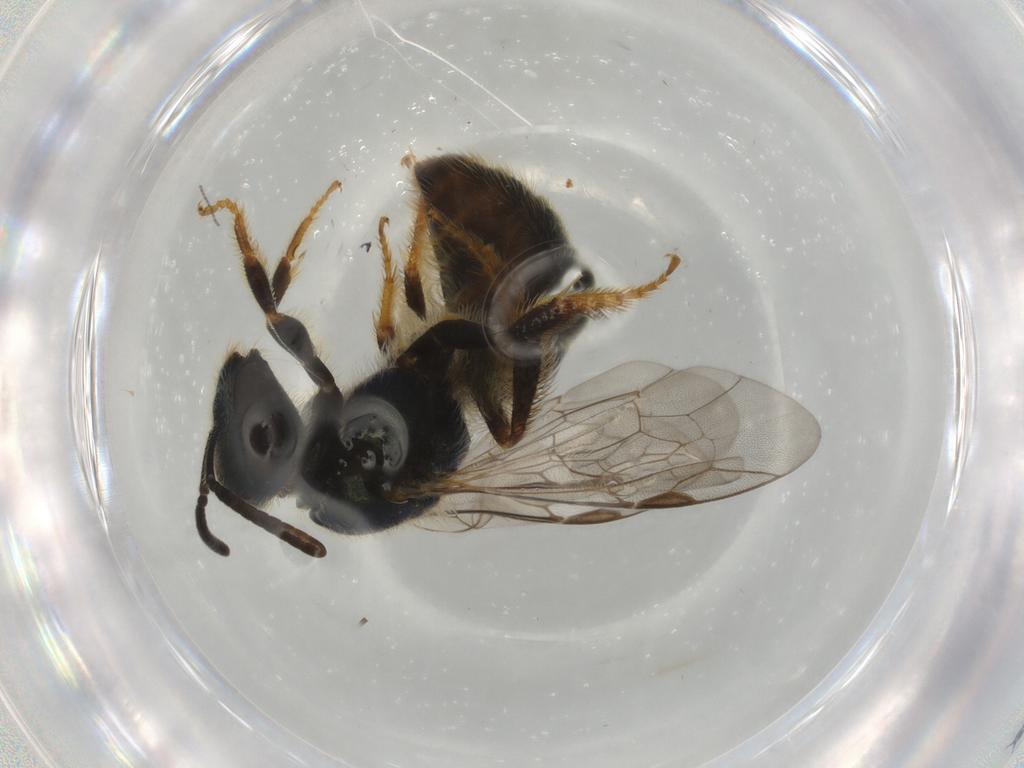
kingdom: Animalia
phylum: Arthropoda
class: Insecta
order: Hymenoptera
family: Halictidae
